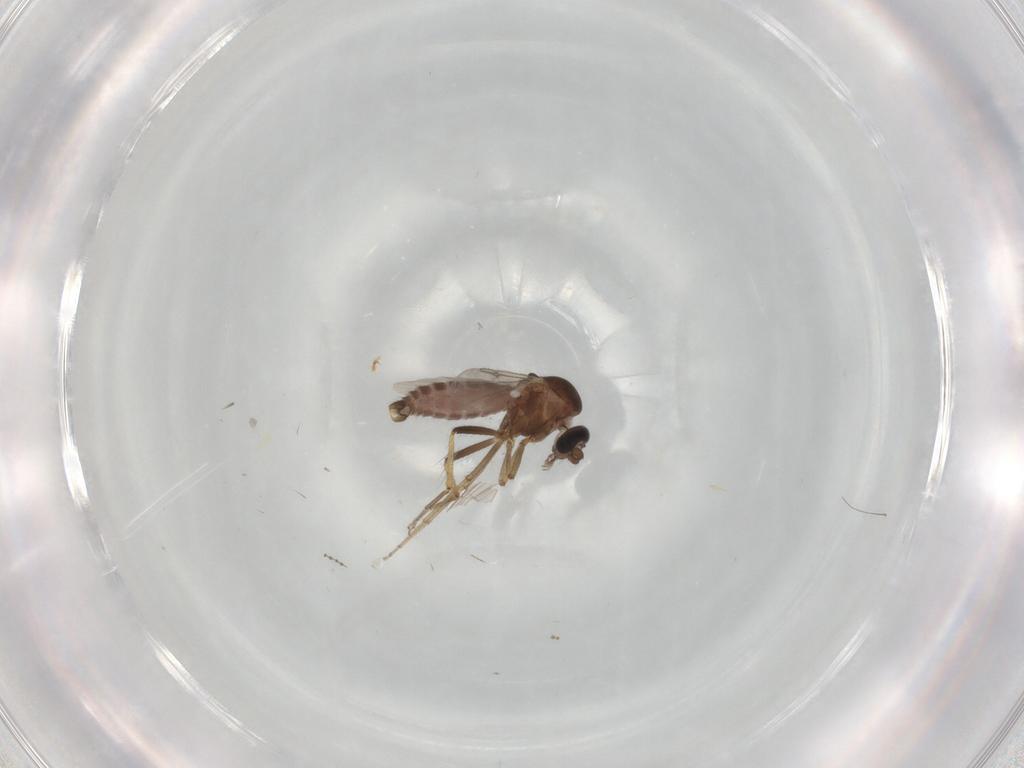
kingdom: Animalia
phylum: Arthropoda
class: Insecta
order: Diptera
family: Ceratopogonidae
